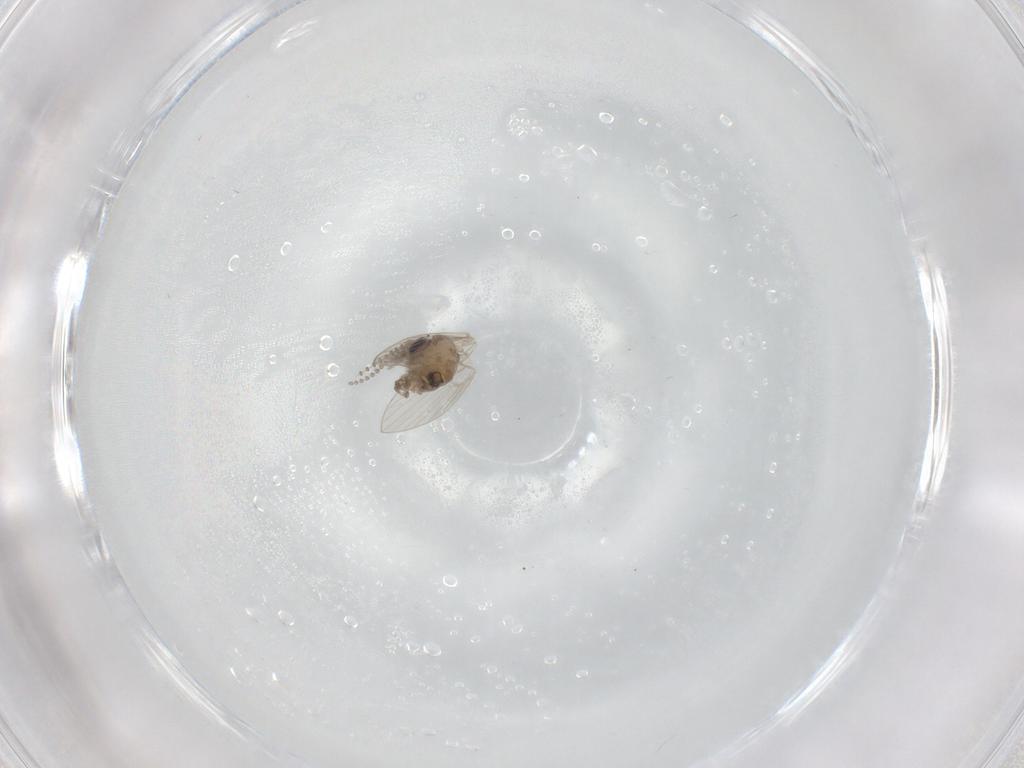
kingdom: Animalia
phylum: Arthropoda
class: Insecta
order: Diptera
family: Psychodidae
